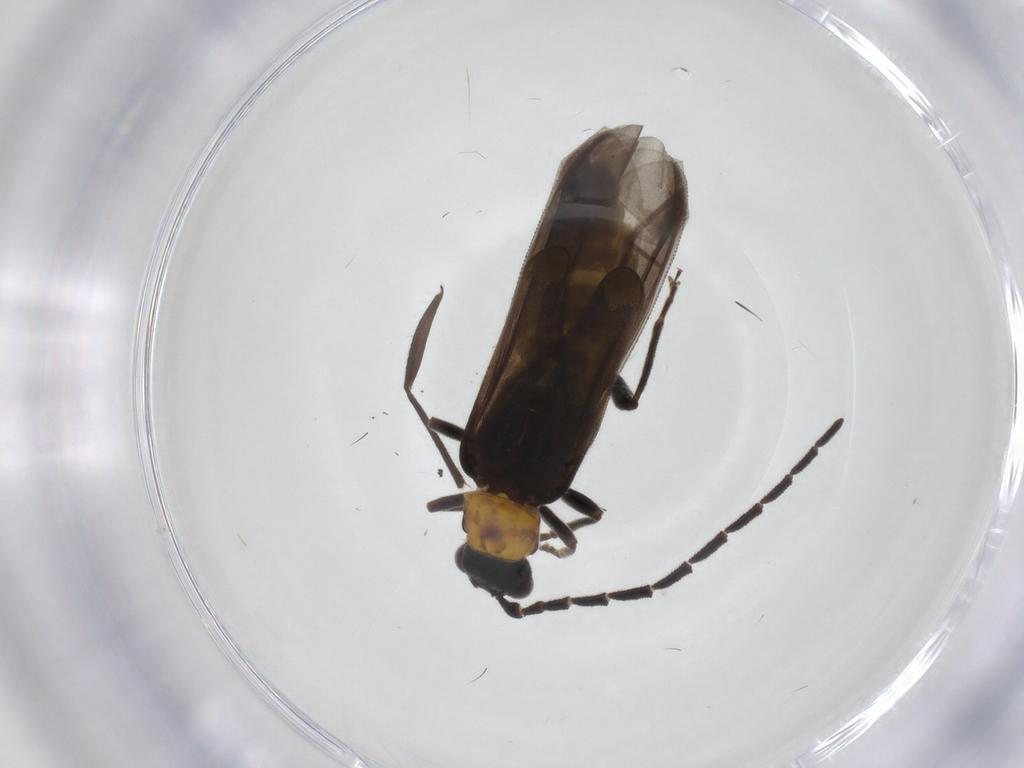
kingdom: Animalia
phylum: Arthropoda
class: Insecta
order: Coleoptera
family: Cantharidae
